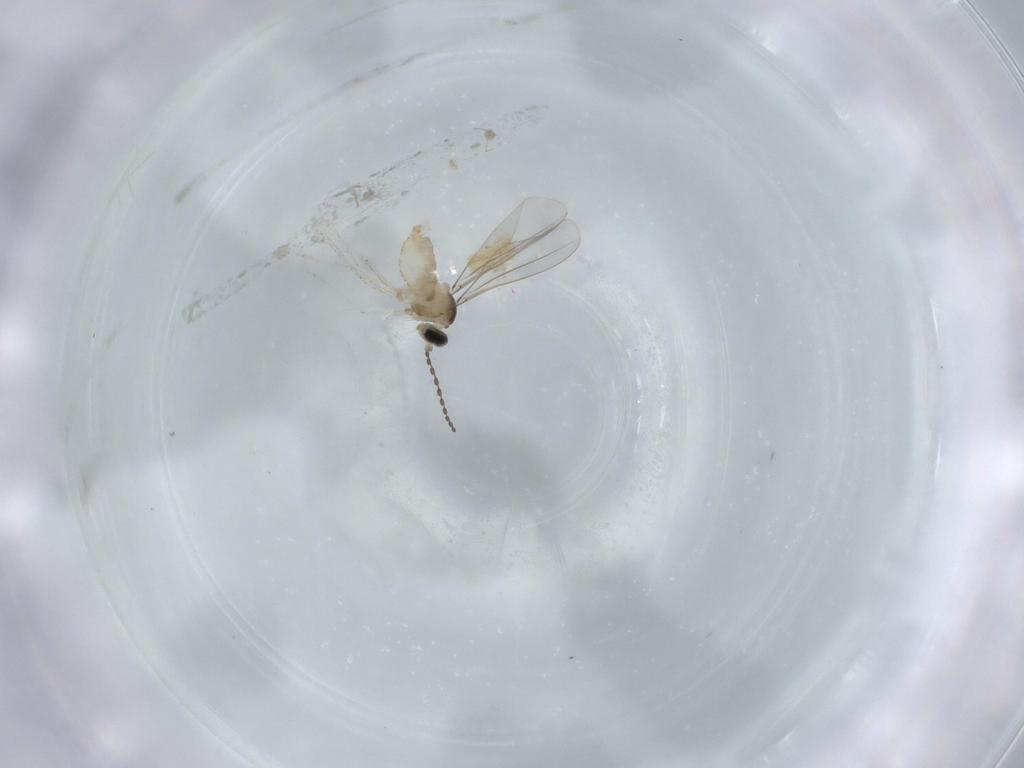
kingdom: Animalia
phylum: Arthropoda
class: Insecta
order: Diptera
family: Cecidomyiidae
